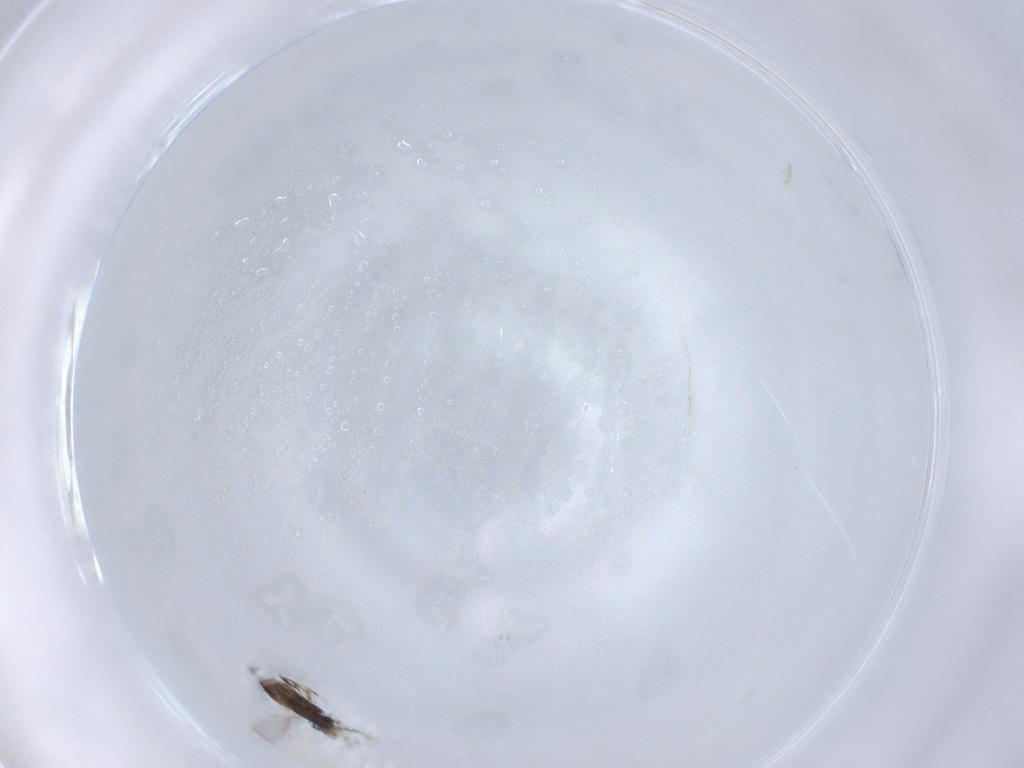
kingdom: Animalia
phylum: Arthropoda
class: Insecta
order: Hymenoptera
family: Aphelinidae
